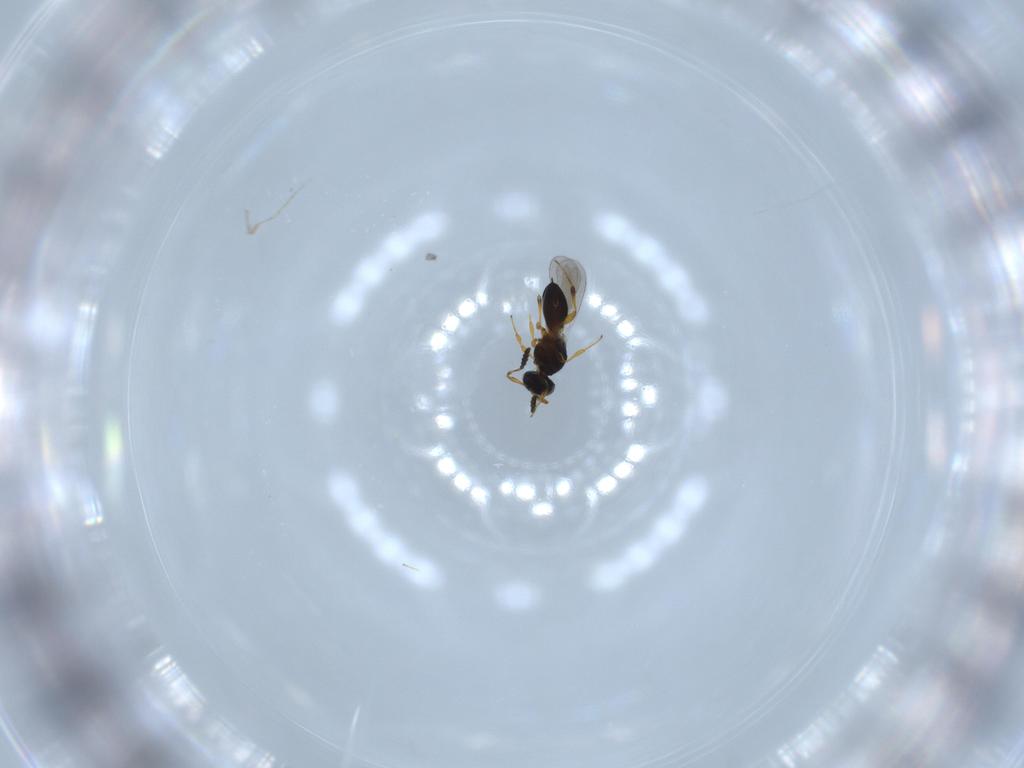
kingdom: Animalia
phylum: Arthropoda
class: Insecta
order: Hymenoptera
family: Platygastridae
